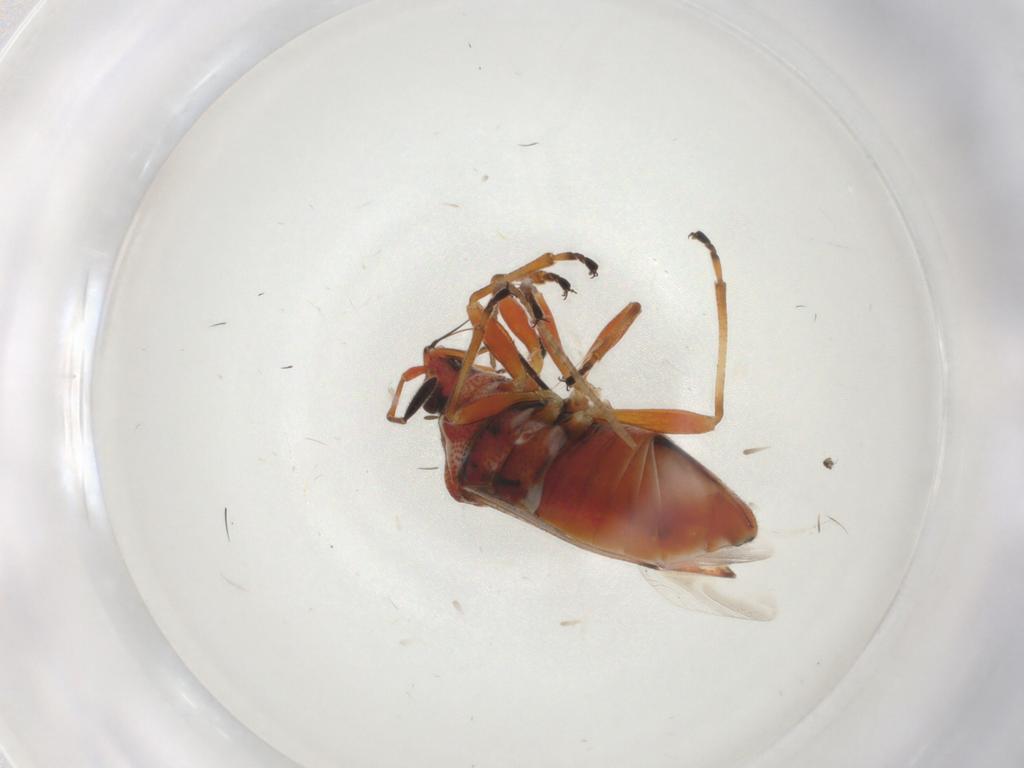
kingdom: Animalia
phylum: Arthropoda
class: Insecta
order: Hemiptera
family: Lygaeidae
